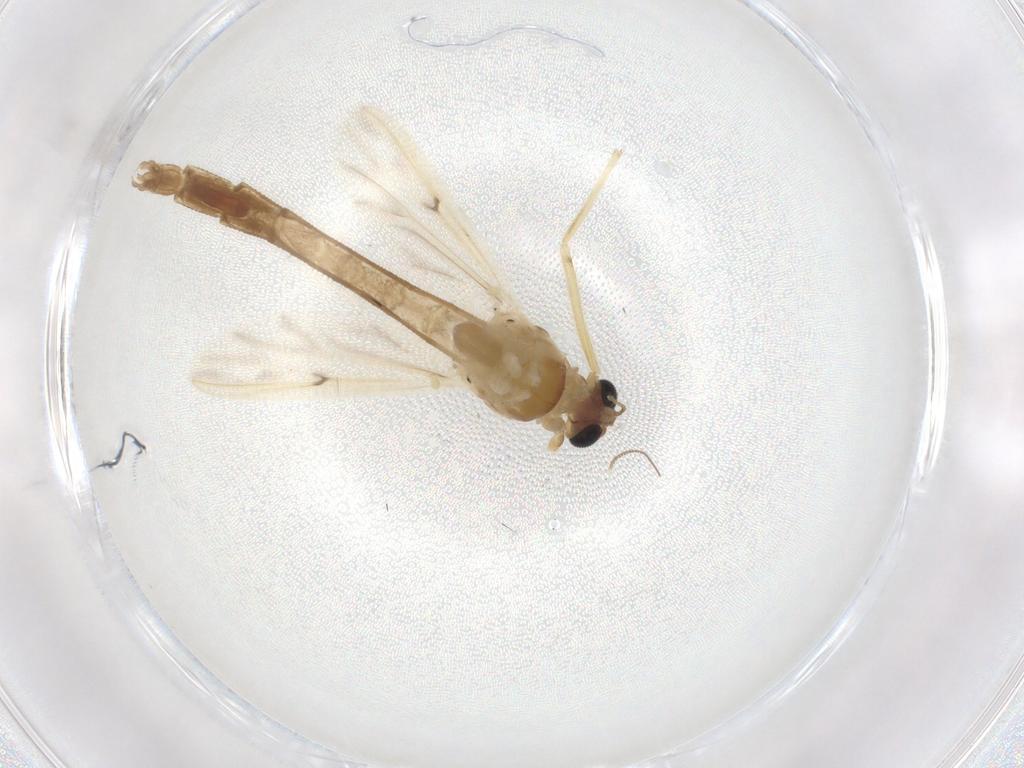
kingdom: Animalia
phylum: Arthropoda
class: Insecta
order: Diptera
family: Chironomidae
